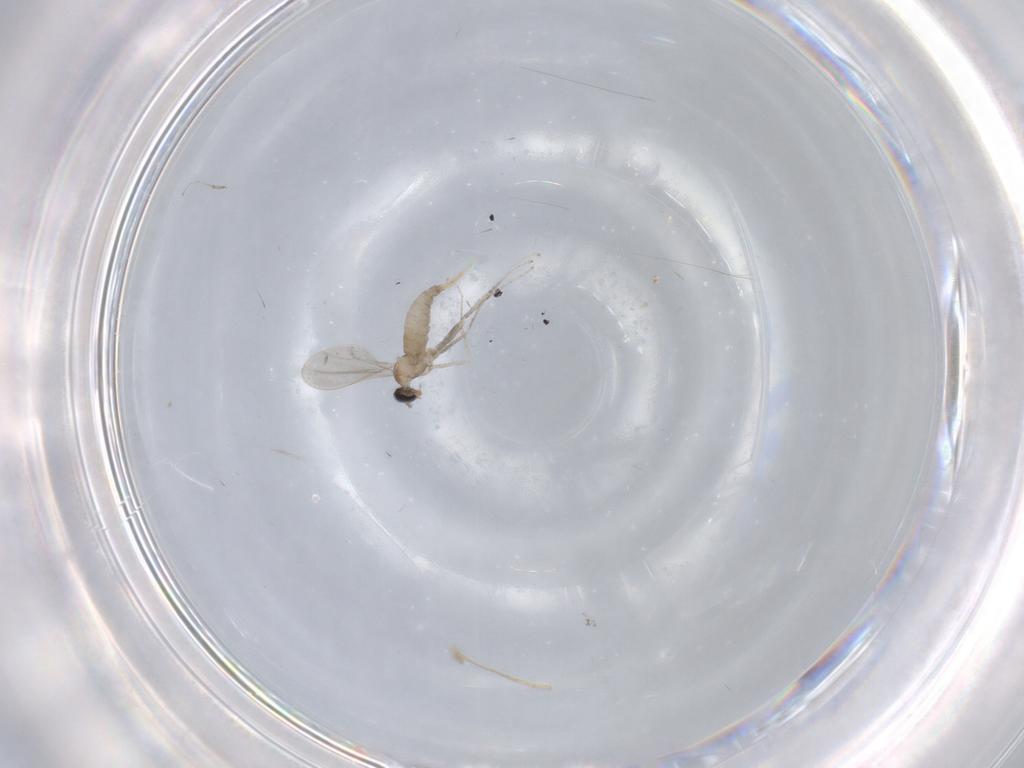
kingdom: Animalia
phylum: Arthropoda
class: Insecta
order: Diptera
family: Cecidomyiidae
